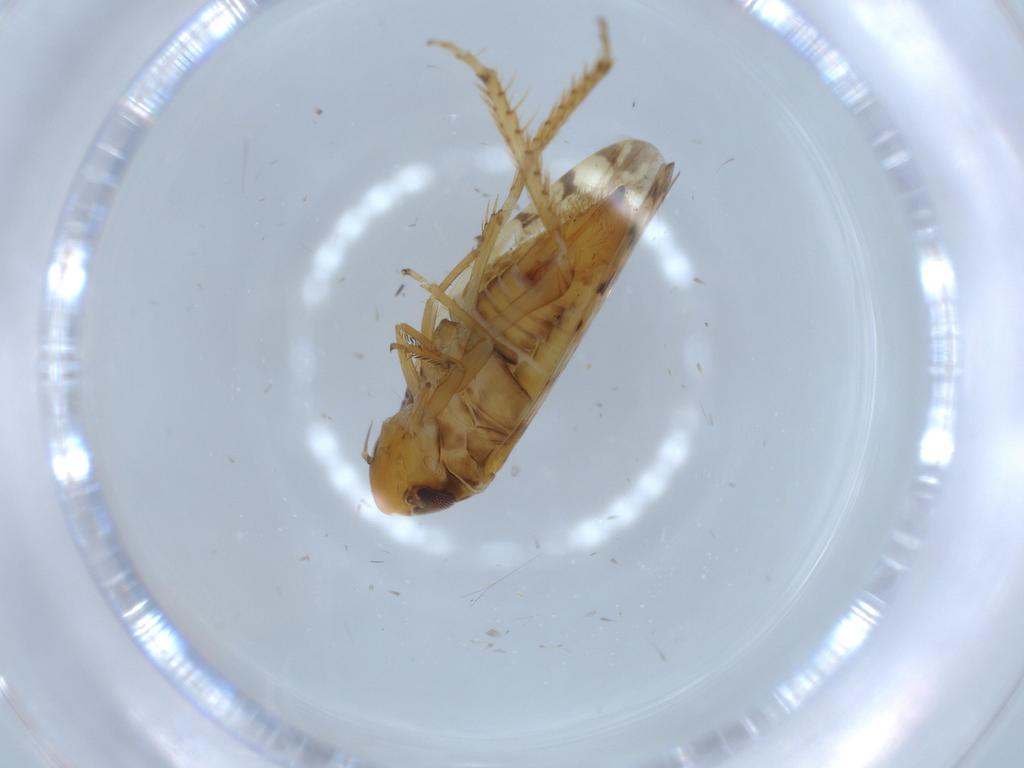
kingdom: Animalia
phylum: Arthropoda
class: Insecta
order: Hemiptera
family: Cicadellidae
